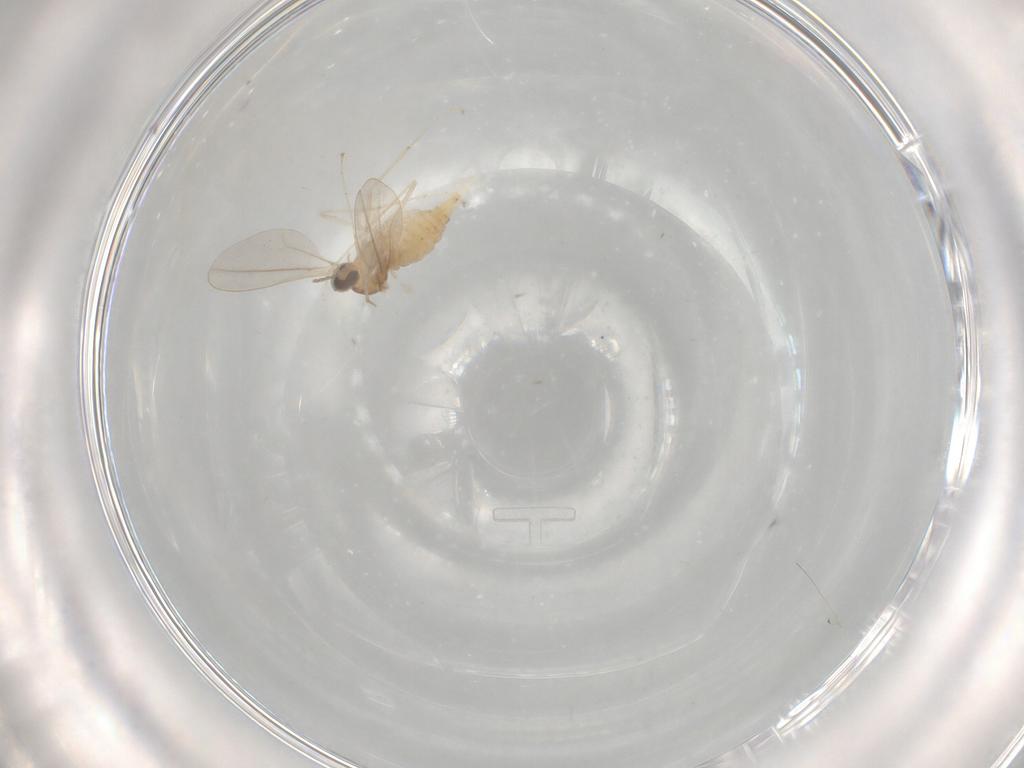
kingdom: Animalia
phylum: Arthropoda
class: Insecta
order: Diptera
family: Cecidomyiidae
